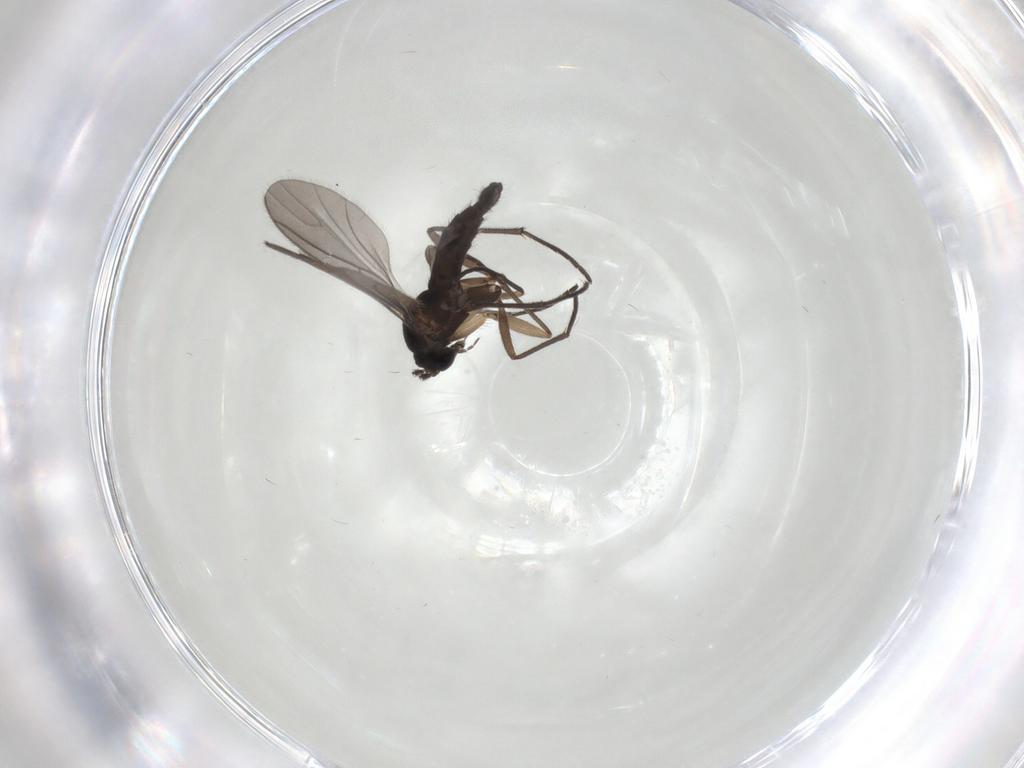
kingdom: Animalia
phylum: Arthropoda
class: Insecta
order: Diptera
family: Sciaridae
